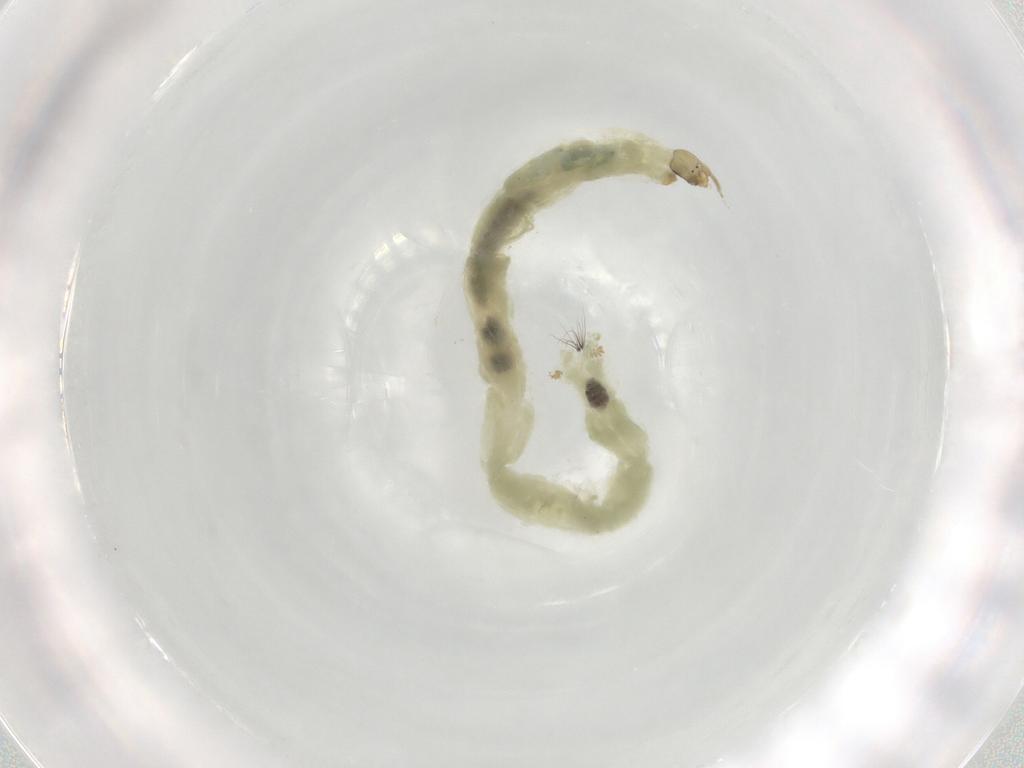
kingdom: Animalia
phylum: Arthropoda
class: Insecta
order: Diptera
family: Chironomidae
